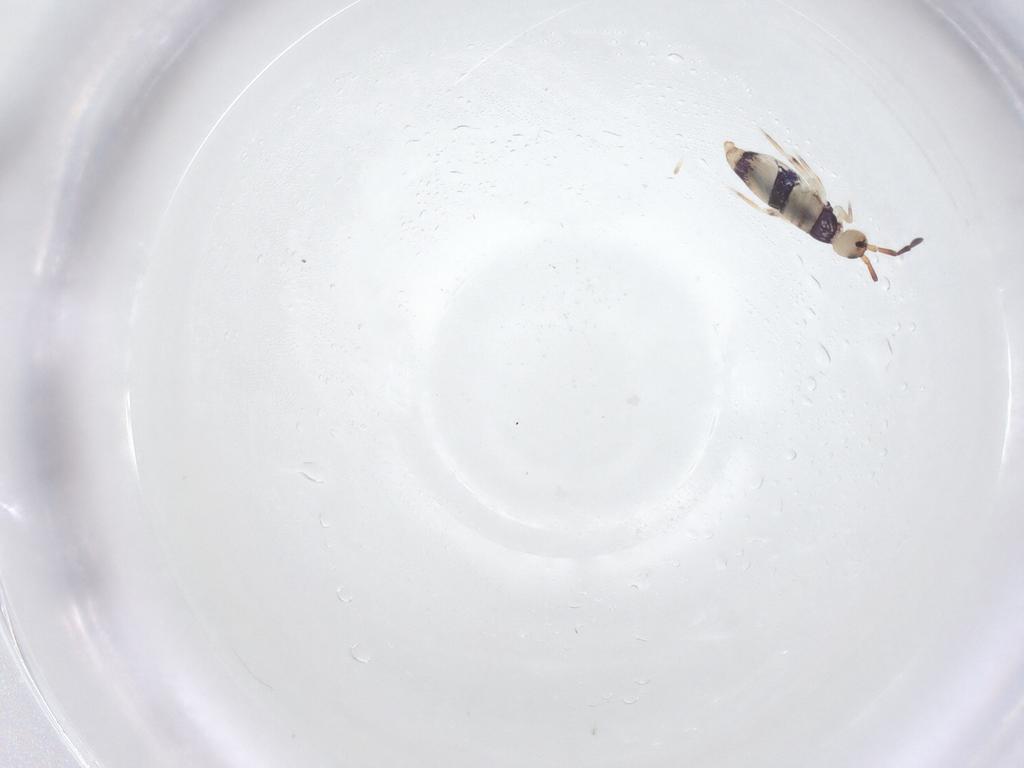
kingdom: Animalia
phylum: Arthropoda
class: Collembola
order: Entomobryomorpha
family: Entomobryidae
